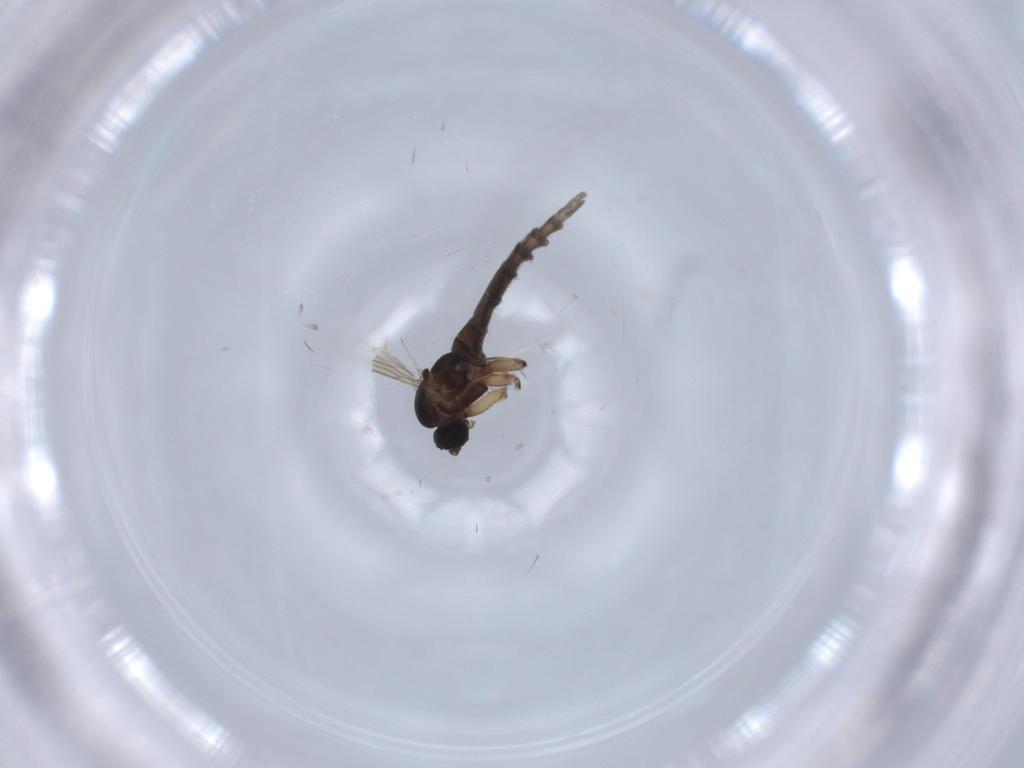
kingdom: Animalia
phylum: Arthropoda
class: Insecta
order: Diptera
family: Sciaridae
